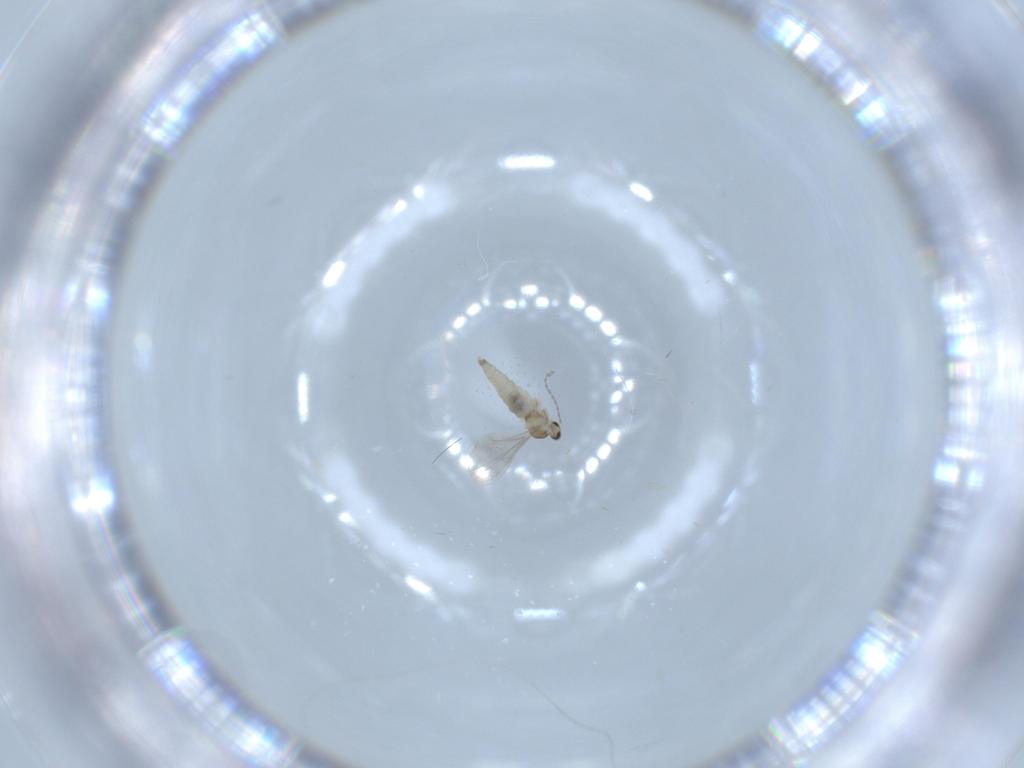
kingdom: Animalia
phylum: Arthropoda
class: Insecta
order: Diptera
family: Cecidomyiidae
